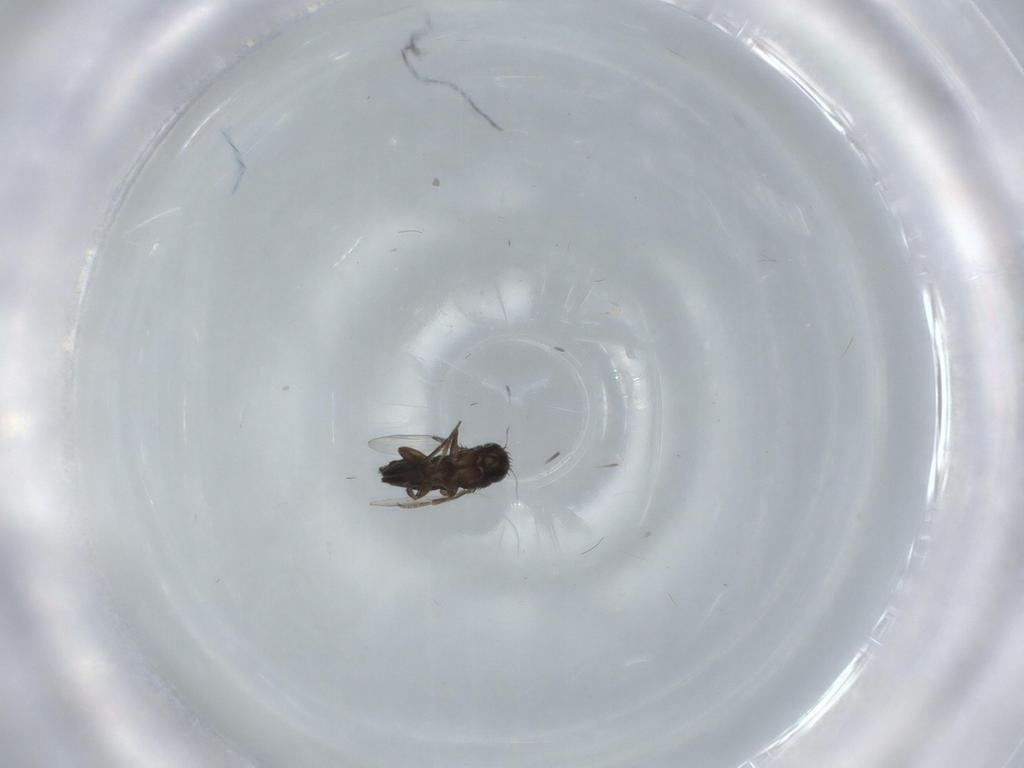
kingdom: Animalia
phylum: Arthropoda
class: Insecta
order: Diptera
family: Phoridae
